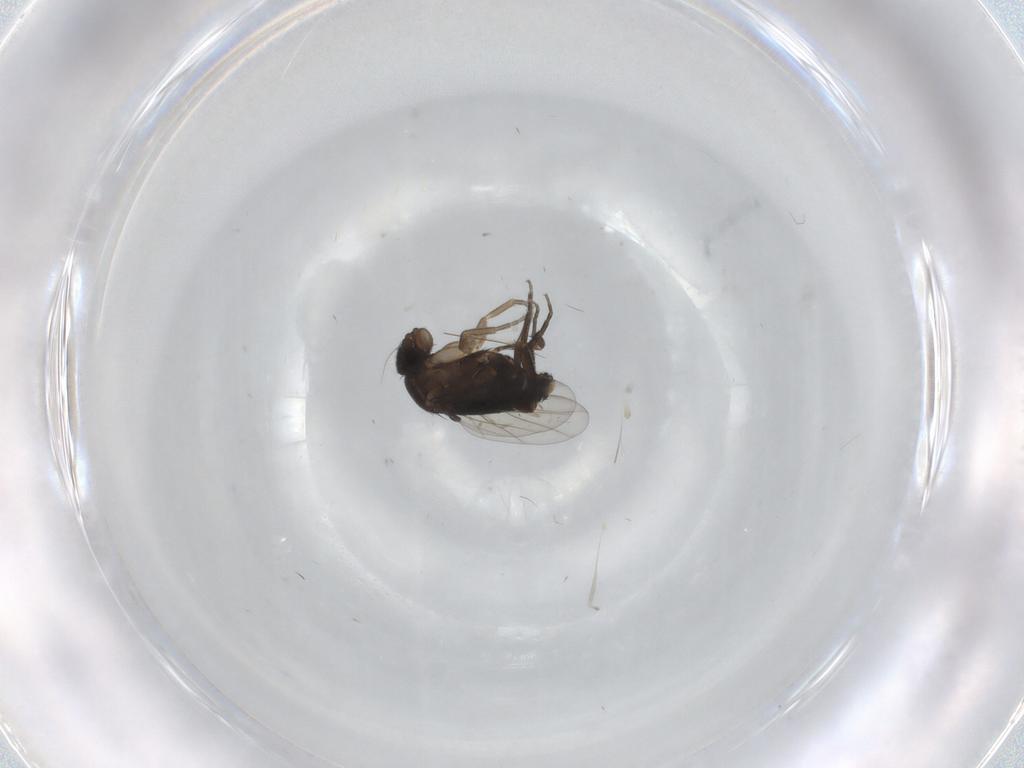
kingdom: Animalia
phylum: Arthropoda
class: Insecta
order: Diptera
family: Phoridae
